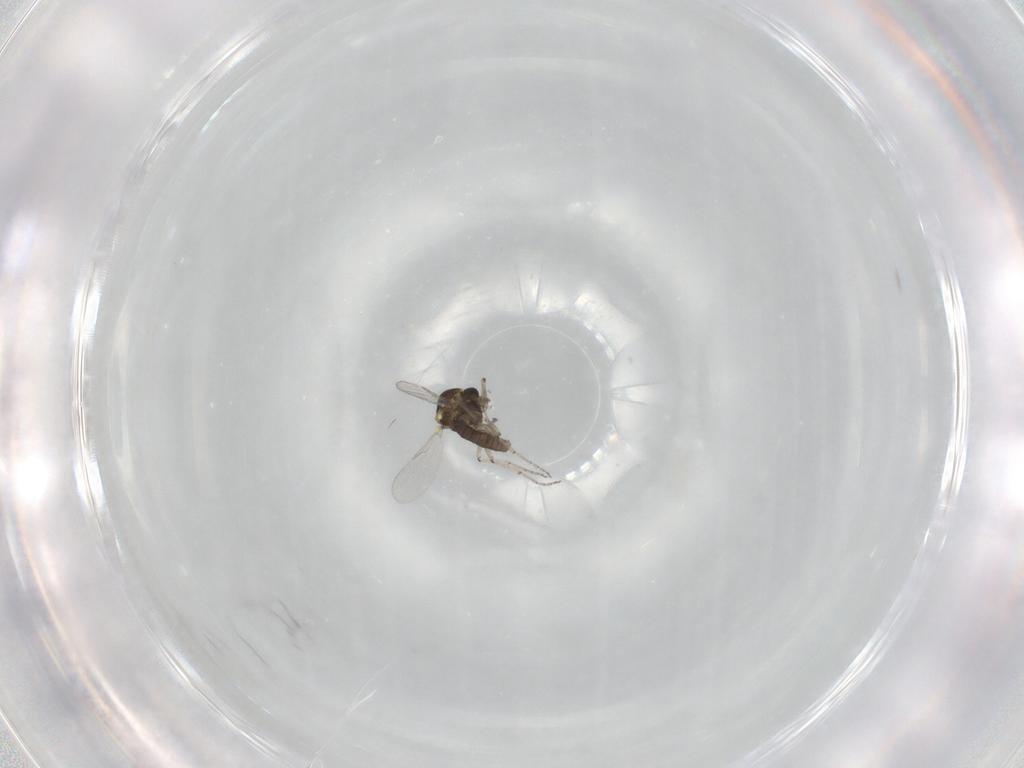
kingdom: Animalia
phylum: Arthropoda
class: Insecta
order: Diptera
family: Ceratopogonidae
